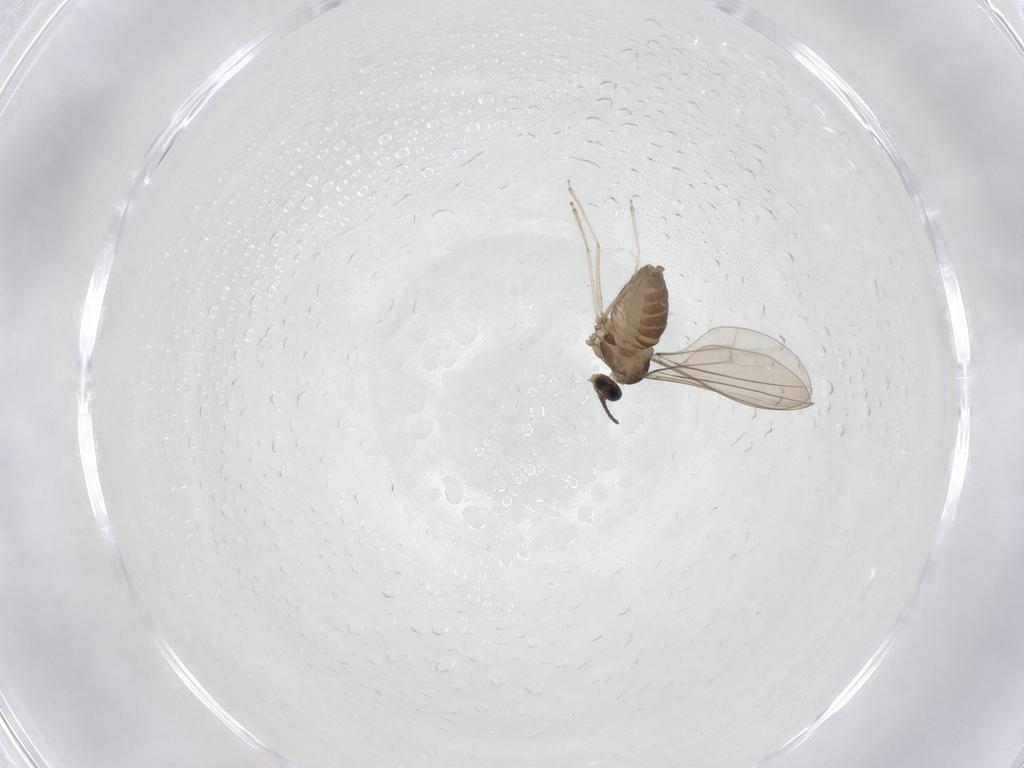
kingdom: Animalia
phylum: Arthropoda
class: Insecta
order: Diptera
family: Cecidomyiidae
